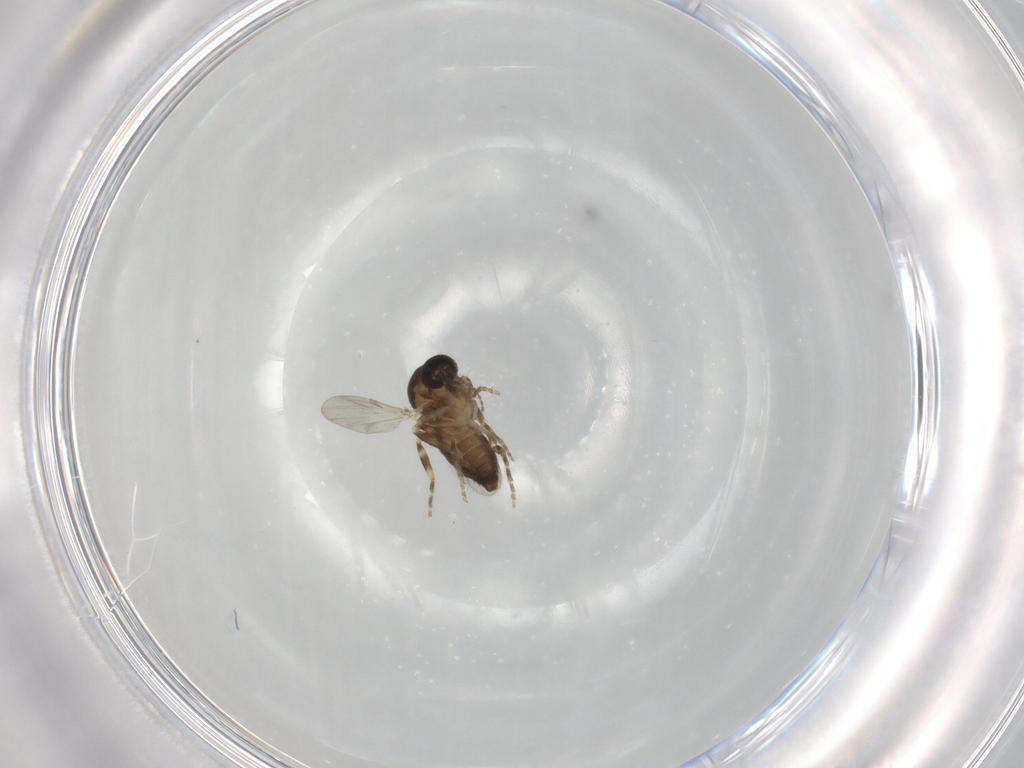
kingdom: Animalia
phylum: Arthropoda
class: Insecta
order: Diptera
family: Ceratopogonidae
